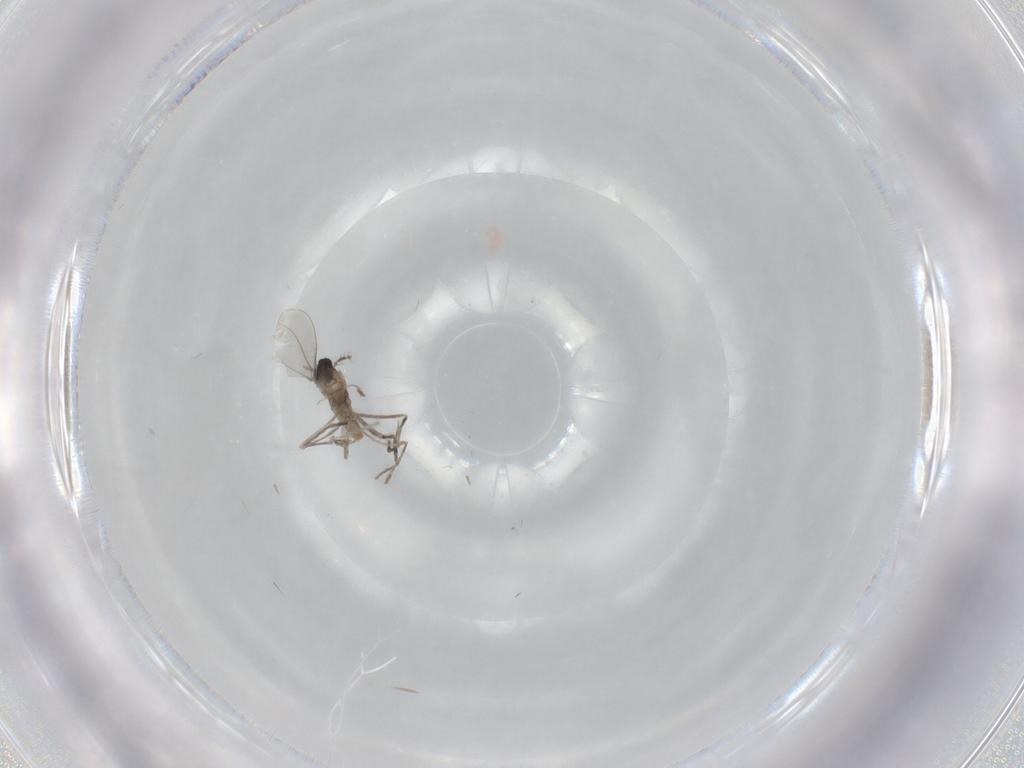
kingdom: Animalia
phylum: Arthropoda
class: Insecta
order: Diptera
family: Cecidomyiidae
